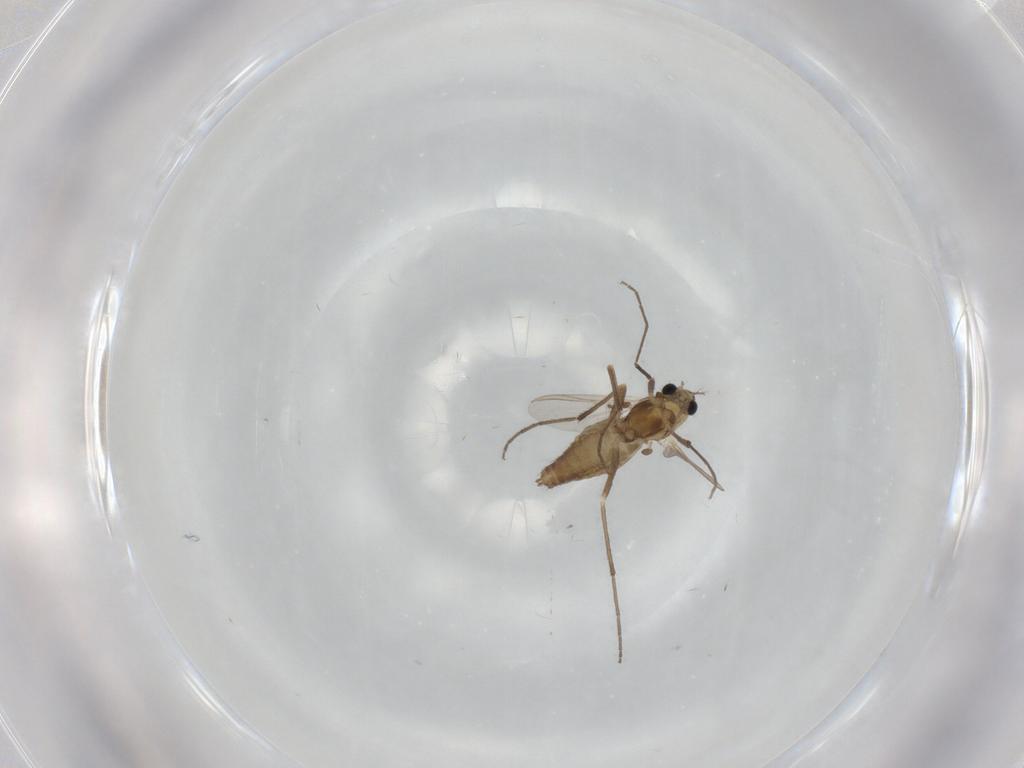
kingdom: Animalia
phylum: Arthropoda
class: Insecta
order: Diptera
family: Chironomidae
